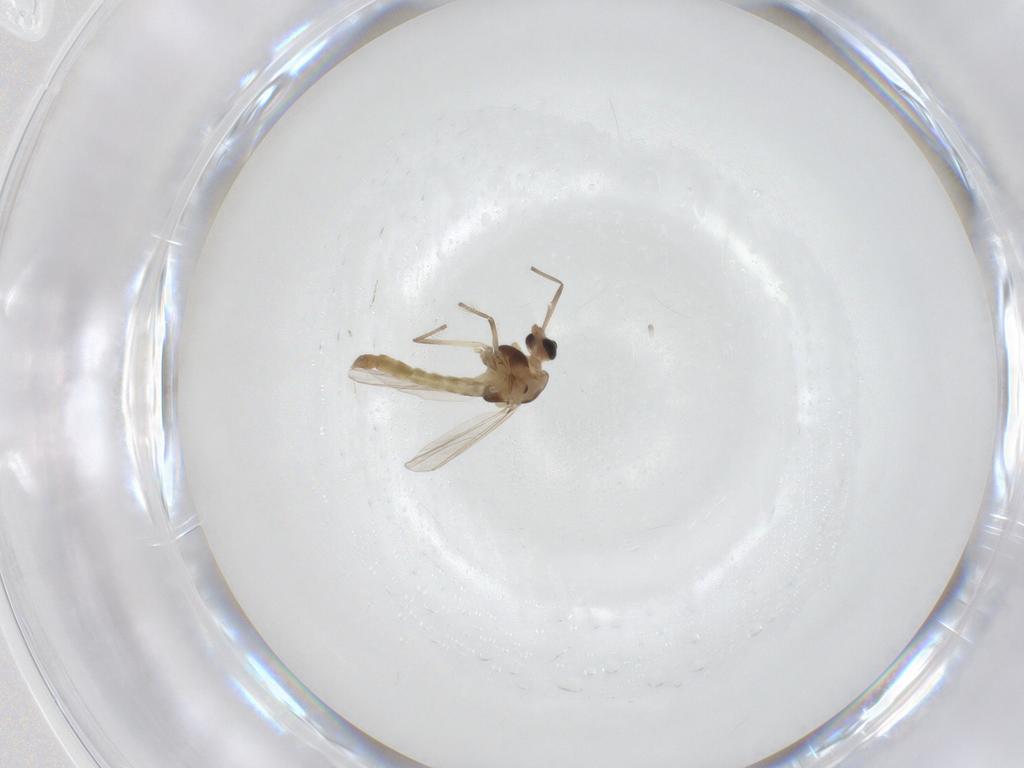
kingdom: Animalia
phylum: Arthropoda
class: Insecta
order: Diptera
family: Chironomidae
